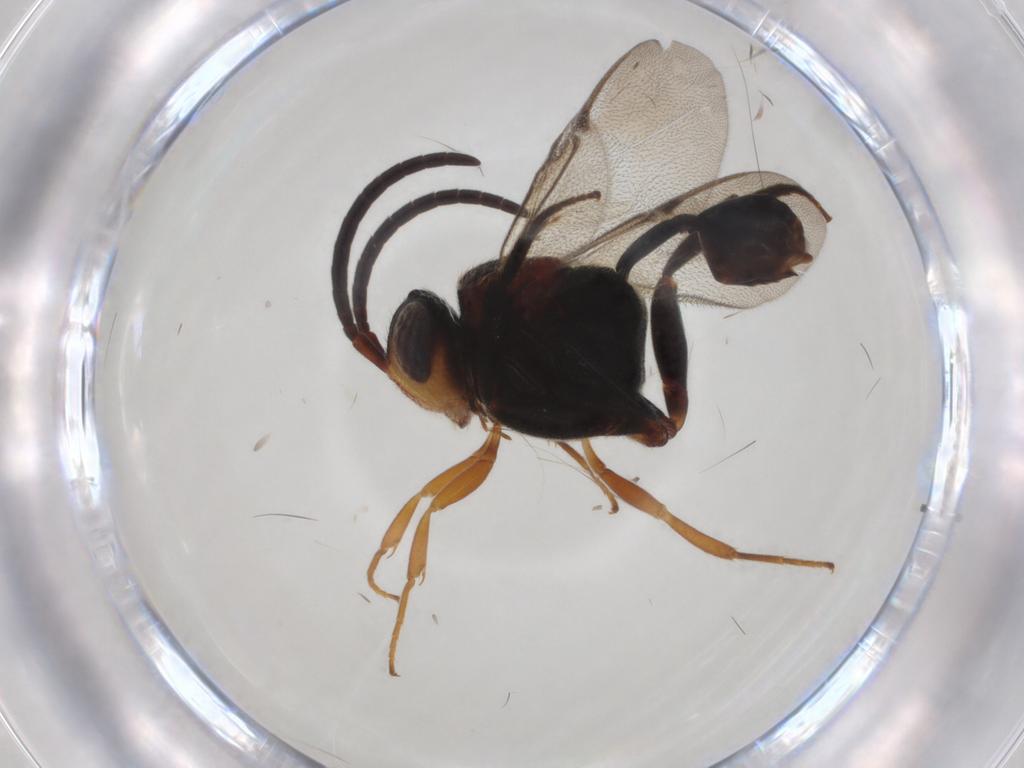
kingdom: Animalia
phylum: Arthropoda
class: Insecta
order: Hymenoptera
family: Evaniidae
